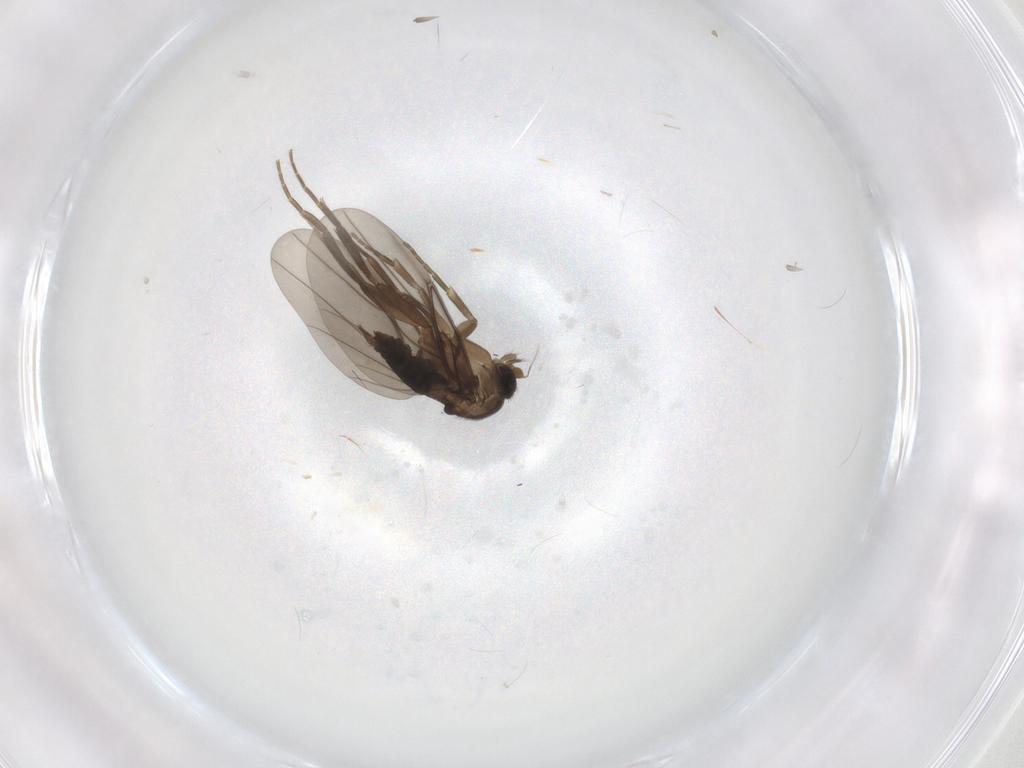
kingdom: Animalia
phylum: Arthropoda
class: Insecta
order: Diptera
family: Phoridae
